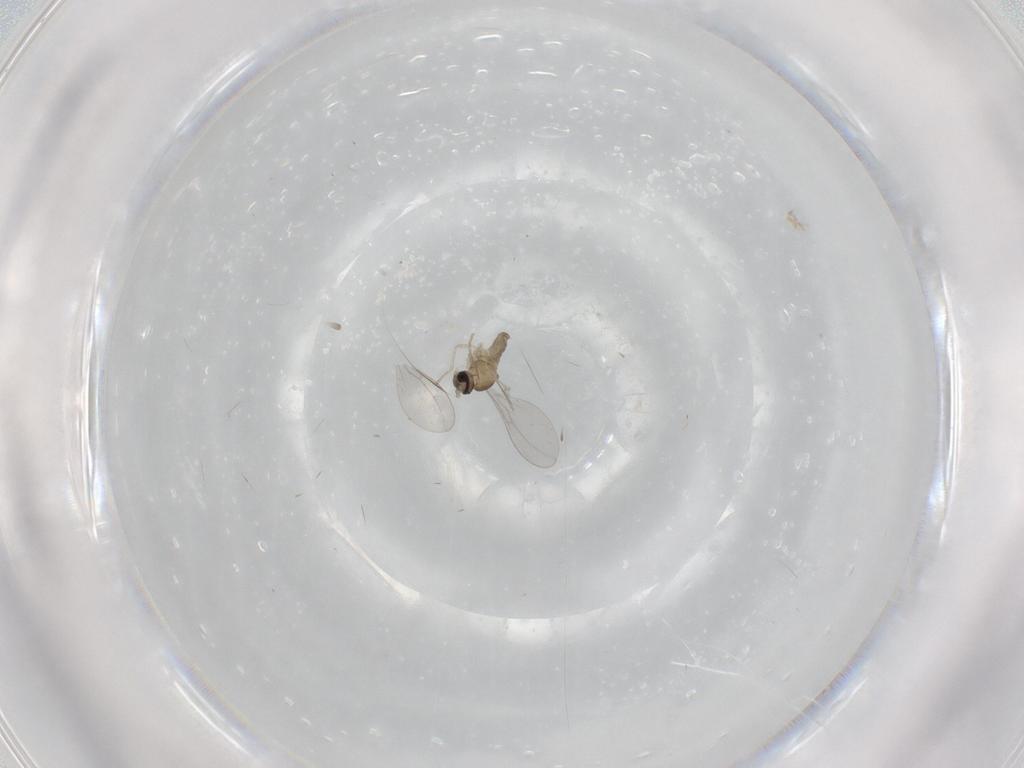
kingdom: Animalia
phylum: Arthropoda
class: Insecta
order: Diptera
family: Cecidomyiidae
